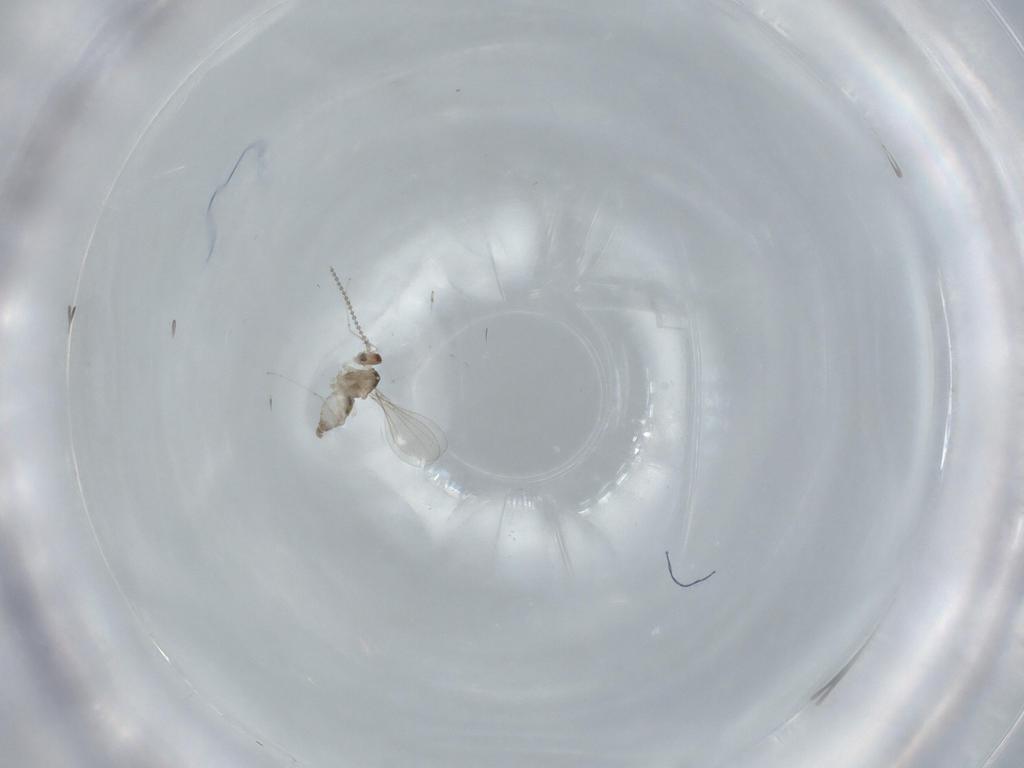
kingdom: Animalia
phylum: Arthropoda
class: Insecta
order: Diptera
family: Cecidomyiidae
